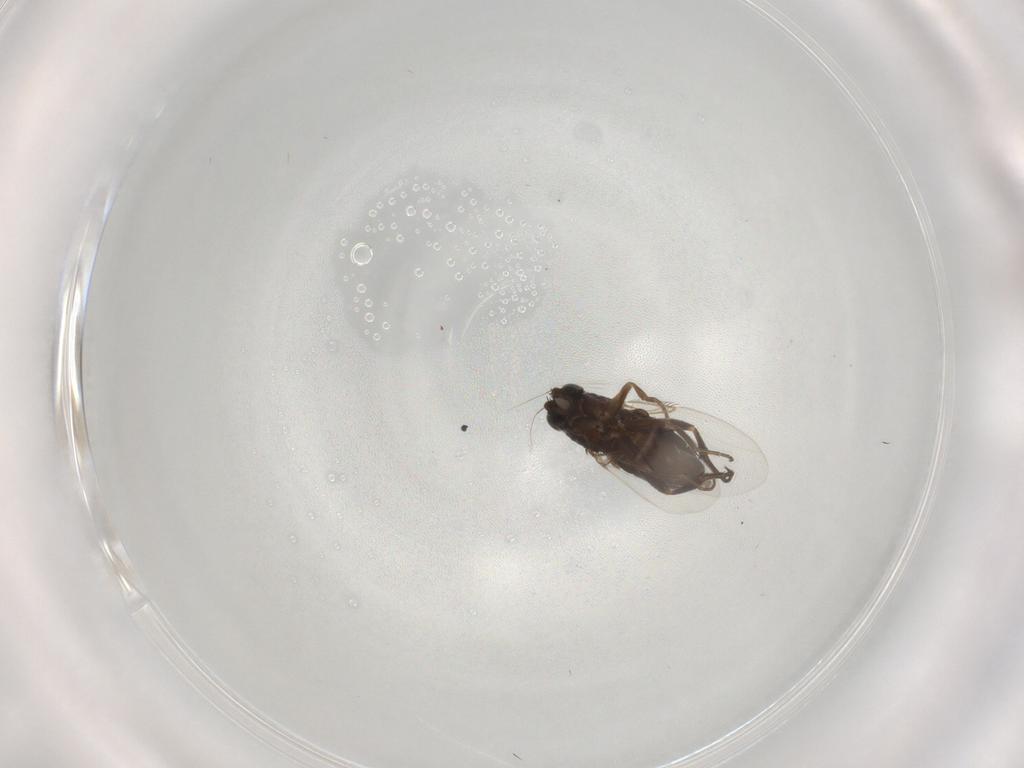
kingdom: Animalia
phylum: Arthropoda
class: Insecta
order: Diptera
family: Phoridae
